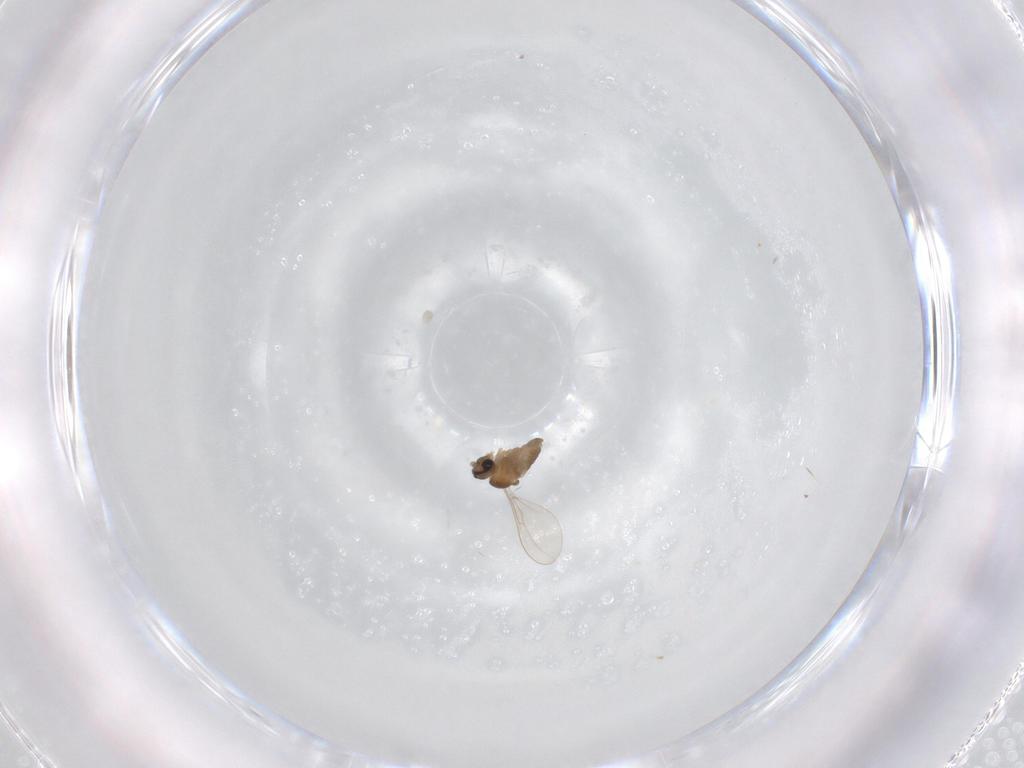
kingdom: Animalia
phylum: Arthropoda
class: Insecta
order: Diptera
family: Cecidomyiidae
